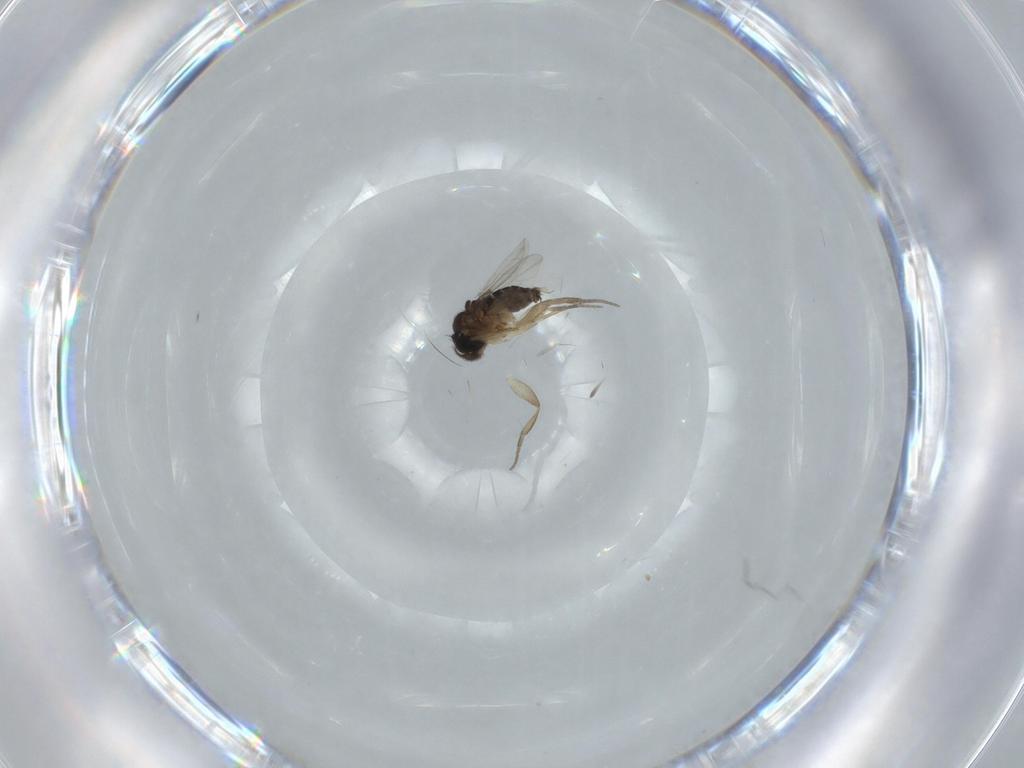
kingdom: Animalia
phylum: Arthropoda
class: Insecta
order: Diptera
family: Phoridae
